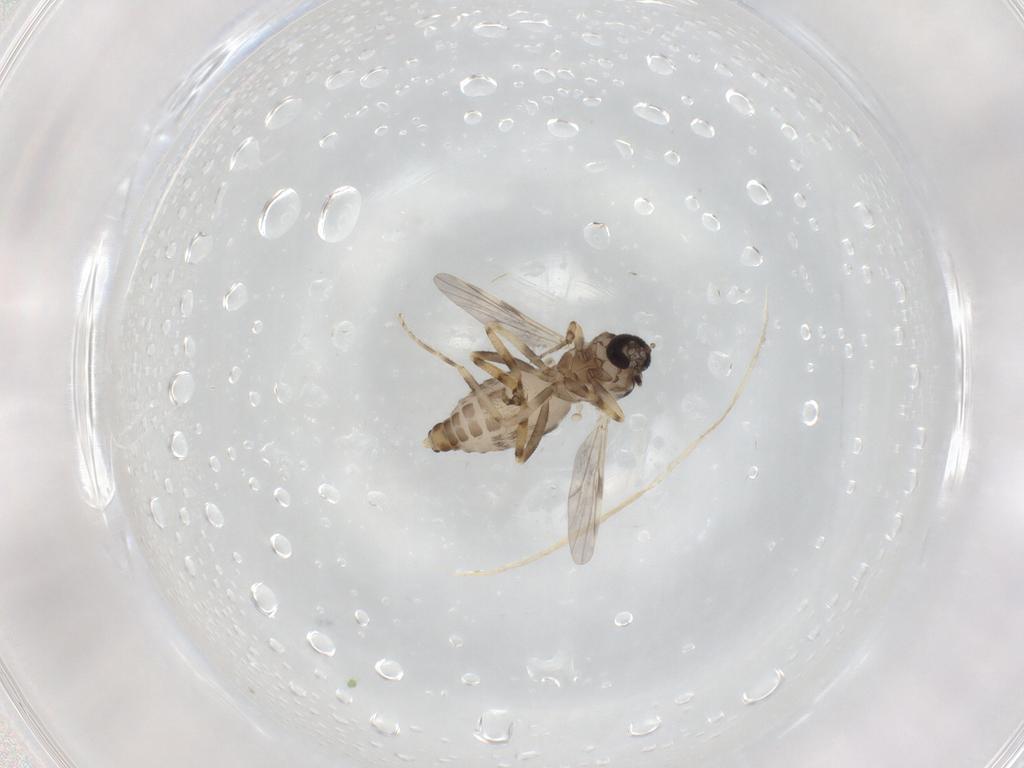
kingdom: Animalia
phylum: Arthropoda
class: Insecta
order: Diptera
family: Ceratopogonidae
